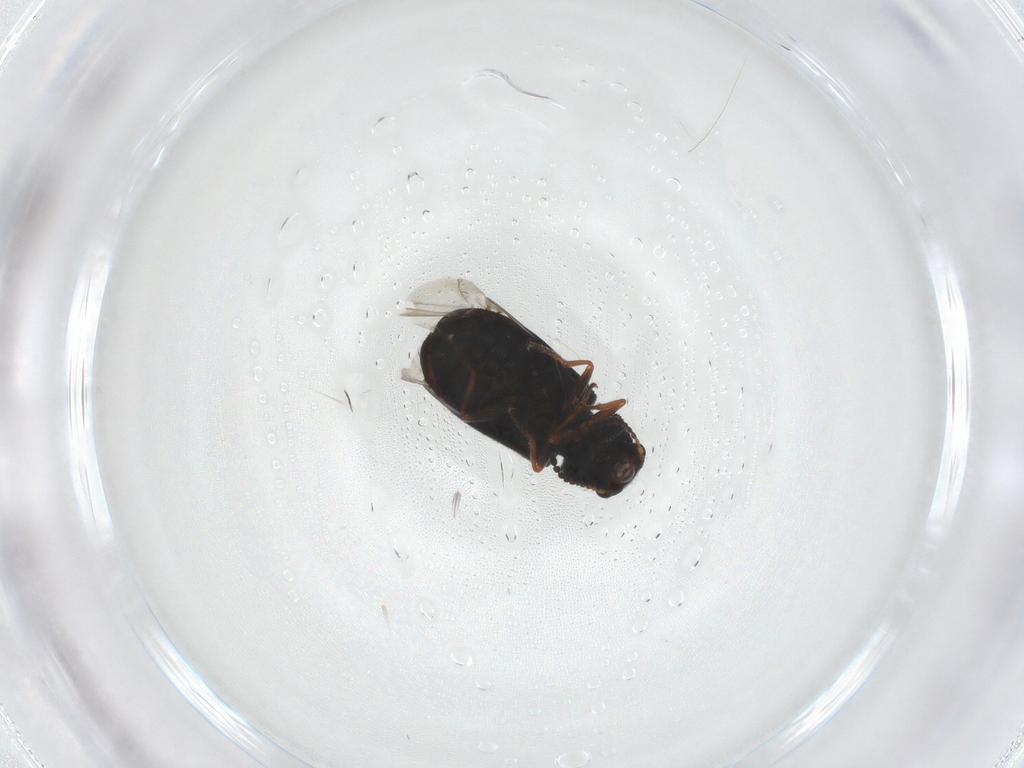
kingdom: Animalia
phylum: Arthropoda
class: Insecta
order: Coleoptera
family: Melyridae
